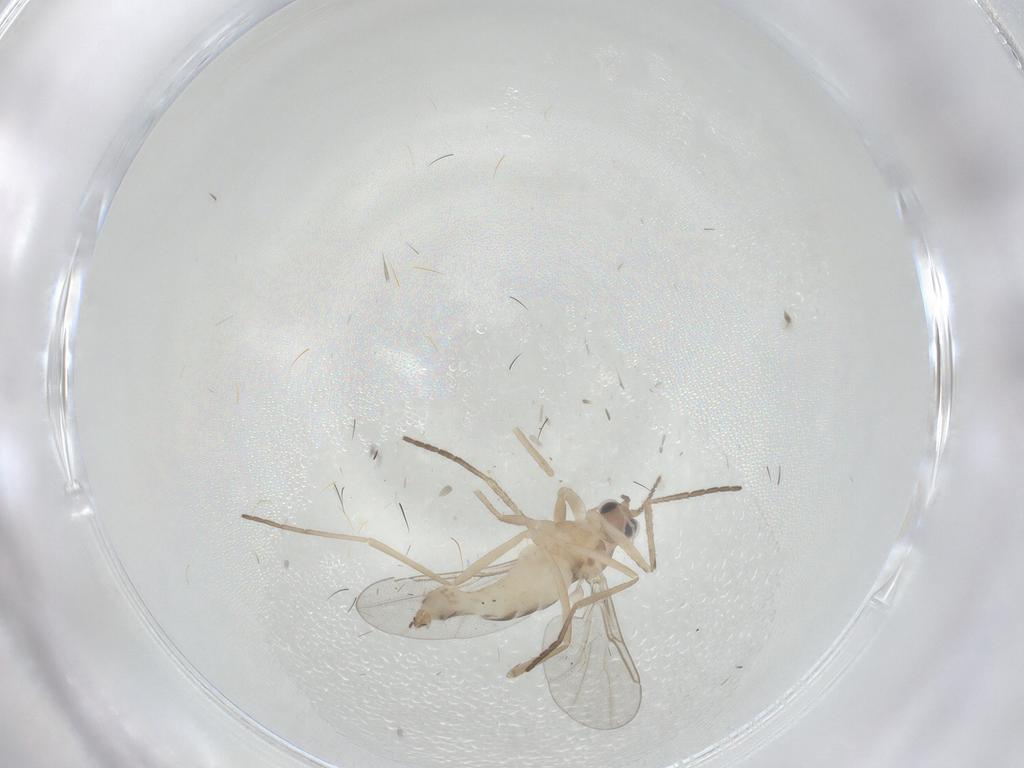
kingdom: Animalia
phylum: Arthropoda
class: Insecta
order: Diptera
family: Cecidomyiidae
